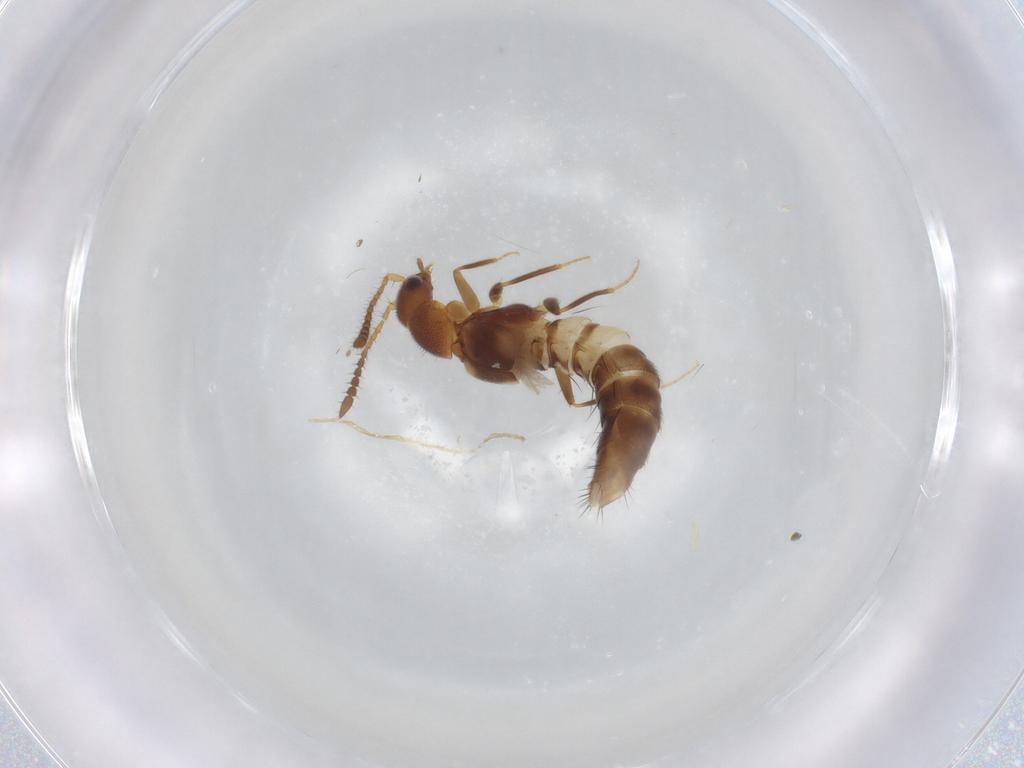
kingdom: Animalia
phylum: Arthropoda
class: Insecta
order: Coleoptera
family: Staphylinidae
